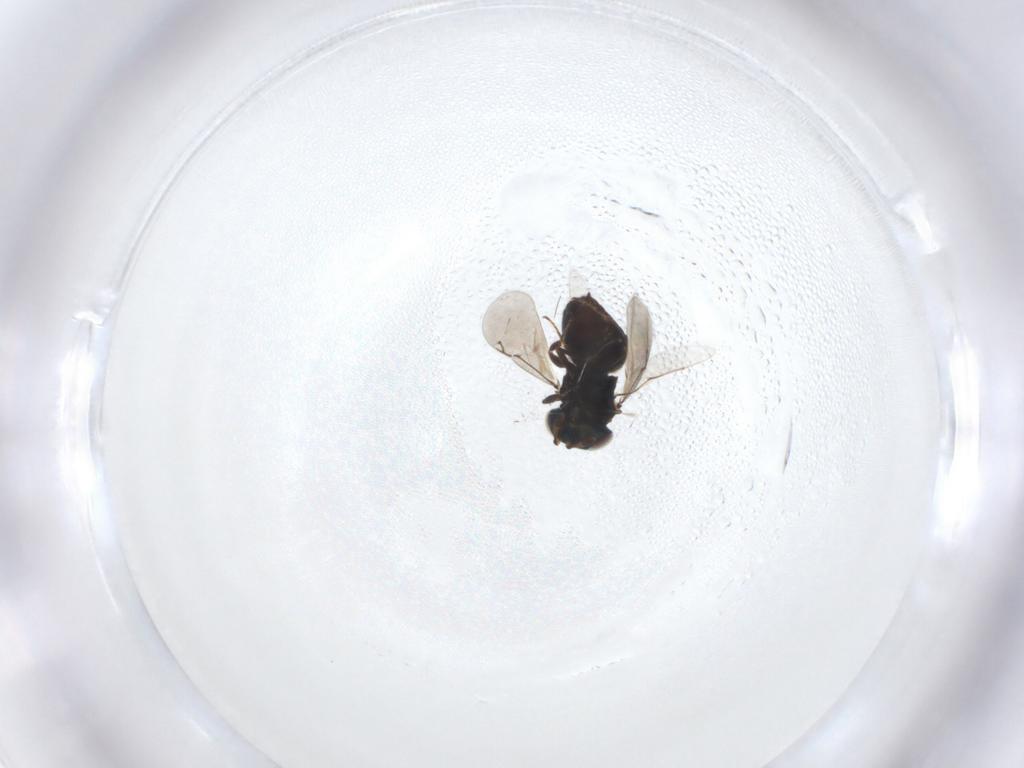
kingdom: Animalia
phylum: Arthropoda
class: Insecta
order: Hymenoptera
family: Eunotidae
